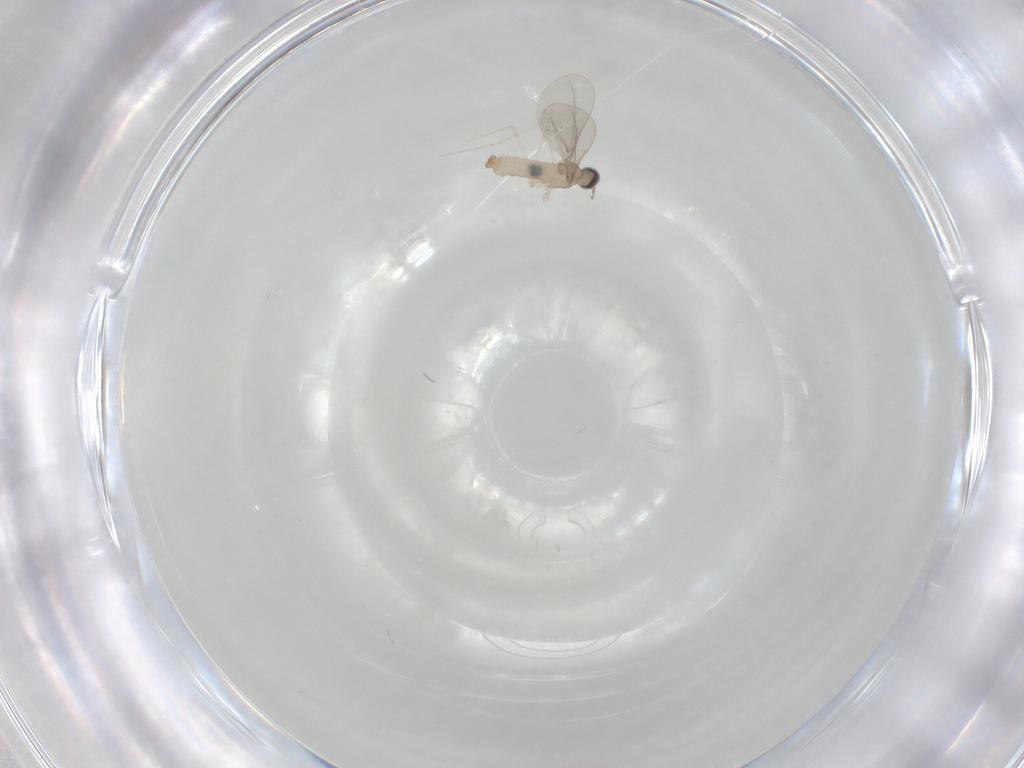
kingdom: Animalia
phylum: Arthropoda
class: Insecta
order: Diptera
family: Cecidomyiidae
